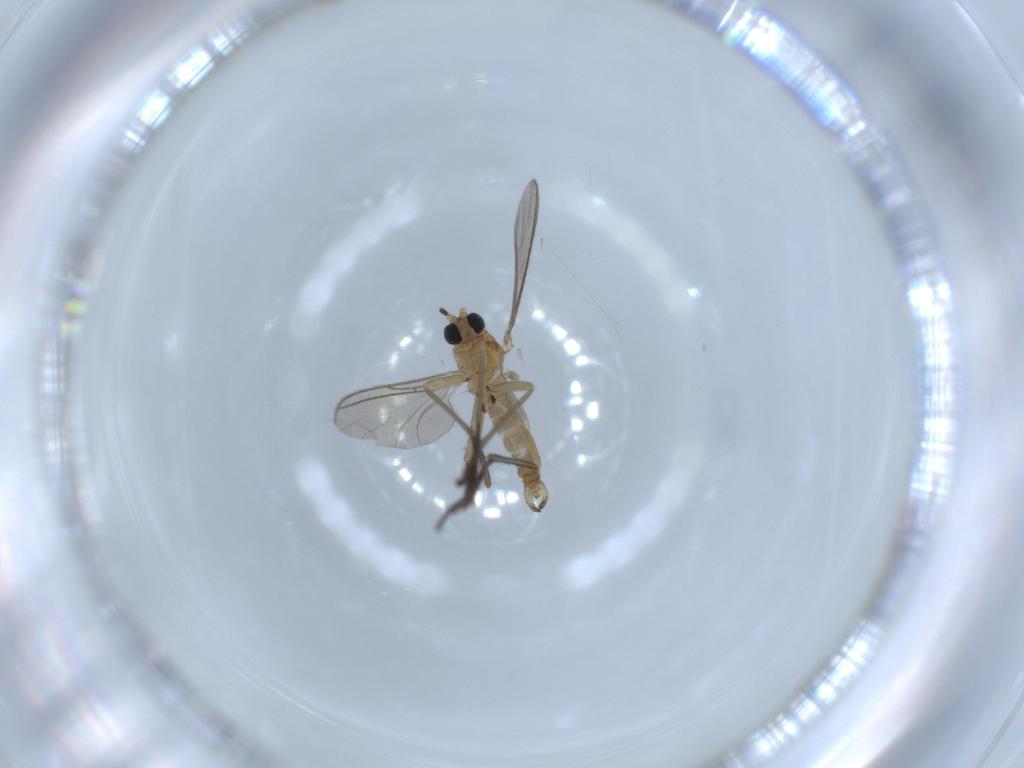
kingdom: Animalia
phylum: Arthropoda
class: Insecta
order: Diptera
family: Sciaridae
